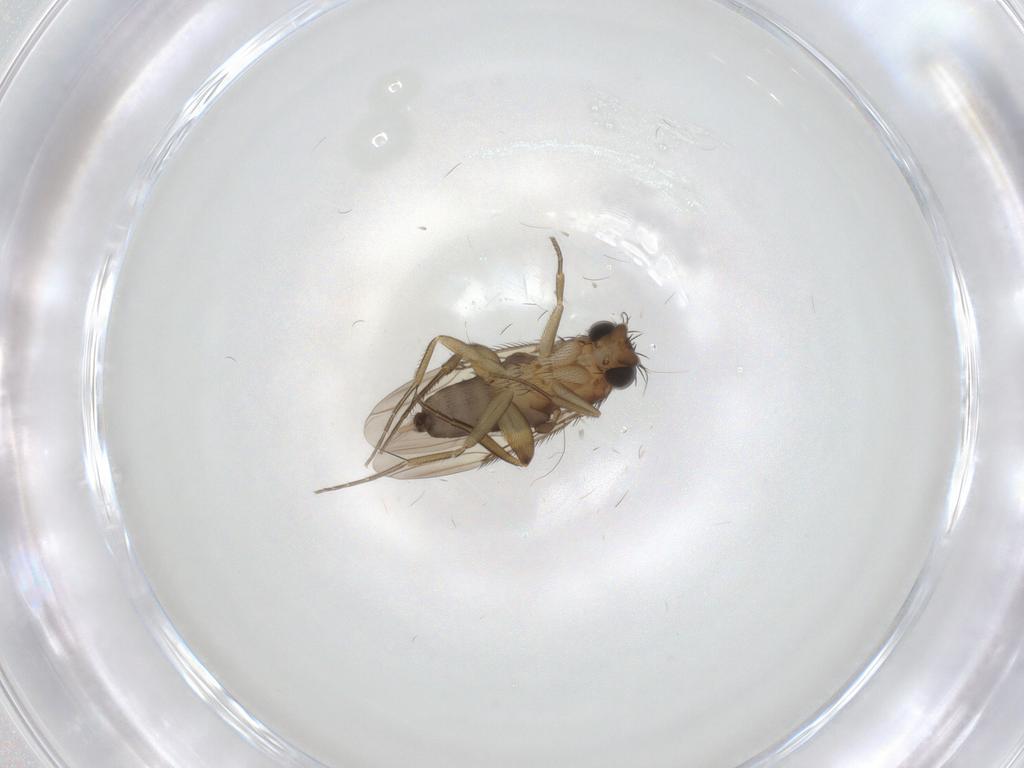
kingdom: Animalia
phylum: Arthropoda
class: Insecta
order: Diptera
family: Phoridae
